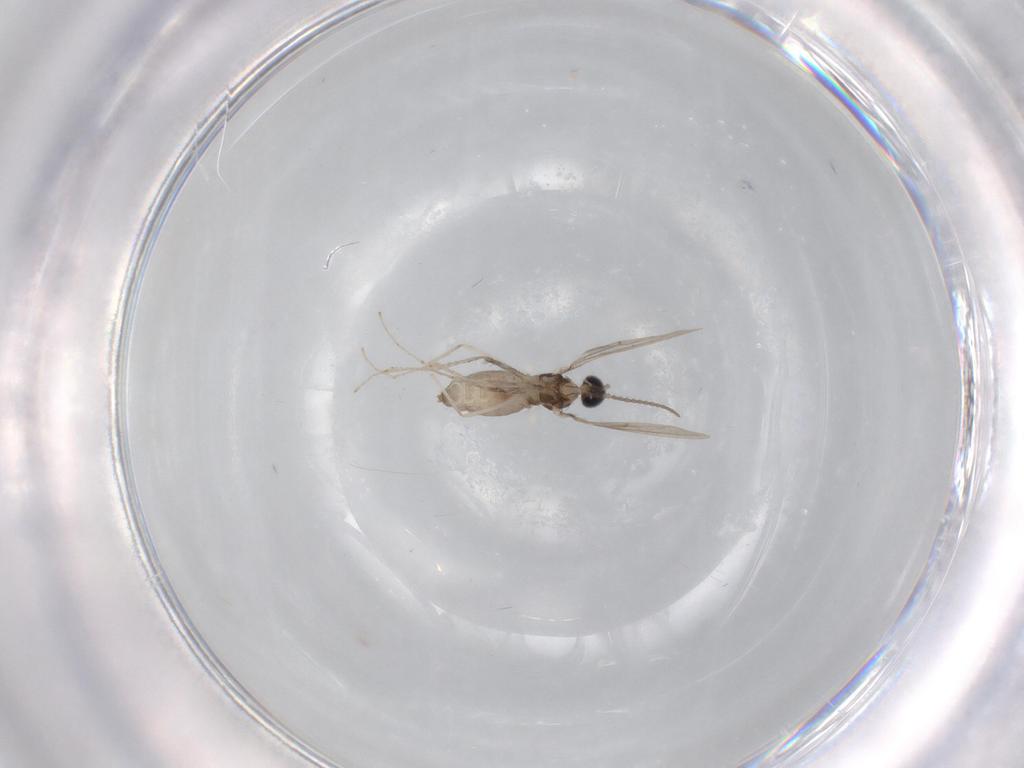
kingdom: Animalia
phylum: Arthropoda
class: Insecta
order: Diptera
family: Cecidomyiidae
